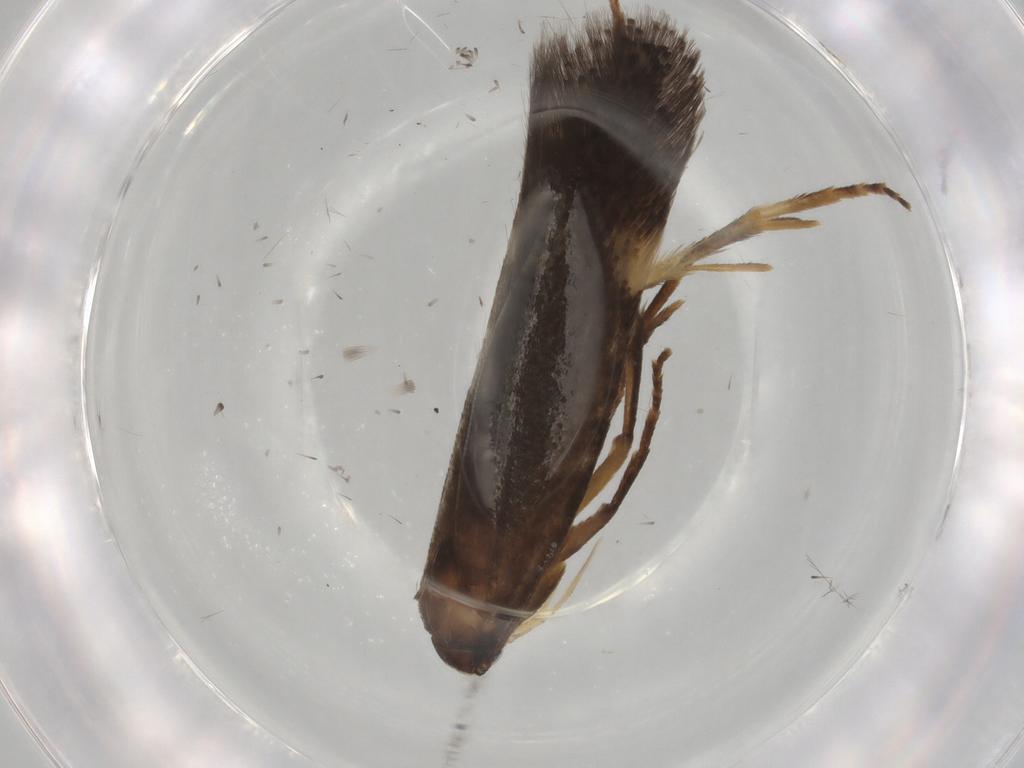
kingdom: Animalia
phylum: Arthropoda
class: Insecta
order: Lepidoptera
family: Gelechiidae
